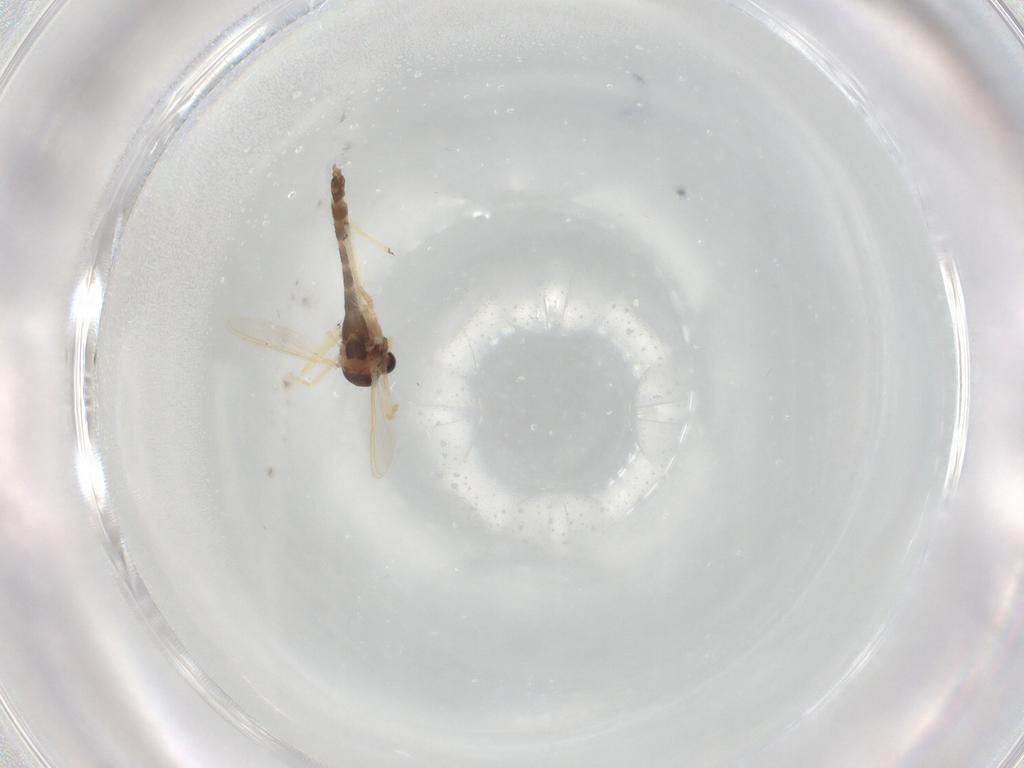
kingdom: Animalia
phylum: Arthropoda
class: Insecta
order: Diptera
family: Chironomidae
